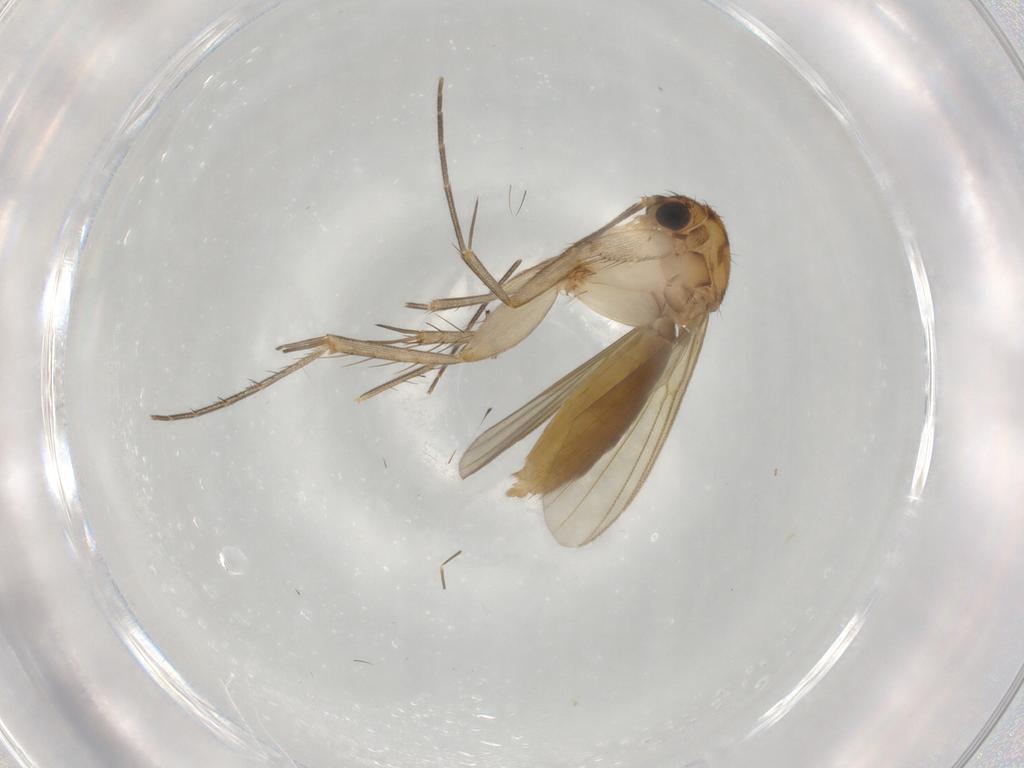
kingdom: Animalia
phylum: Arthropoda
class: Insecta
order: Diptera
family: Mycetophilidae
